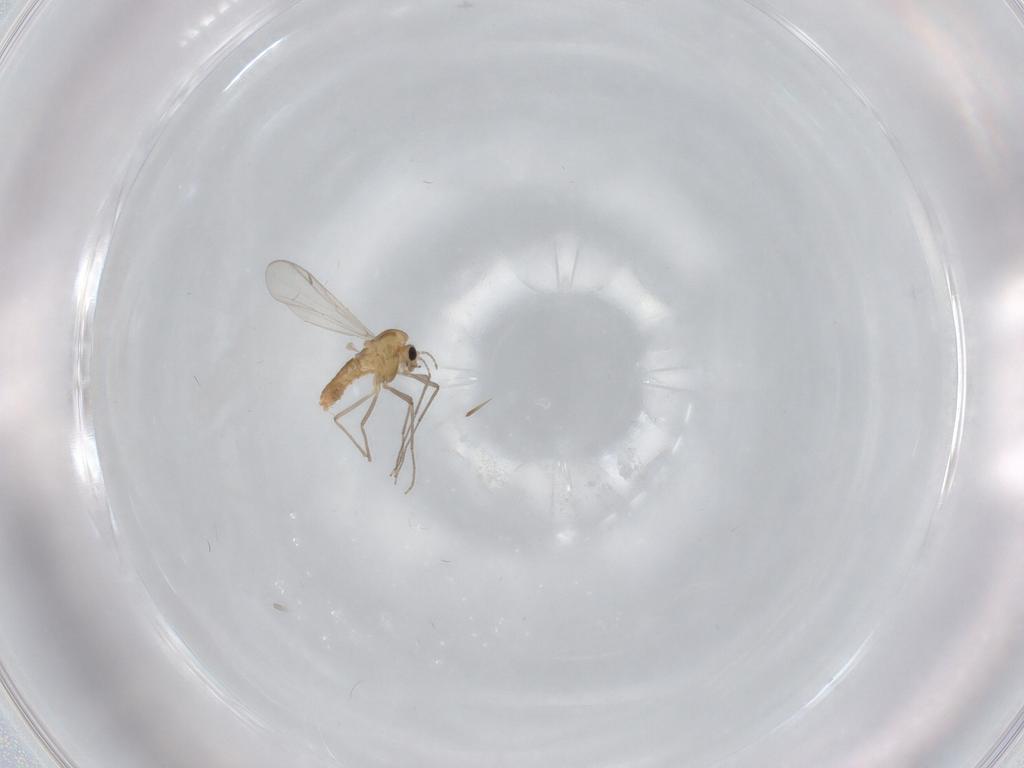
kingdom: Animalia
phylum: Arthropoda
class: Insecta
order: Diptera
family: Chironomidae
